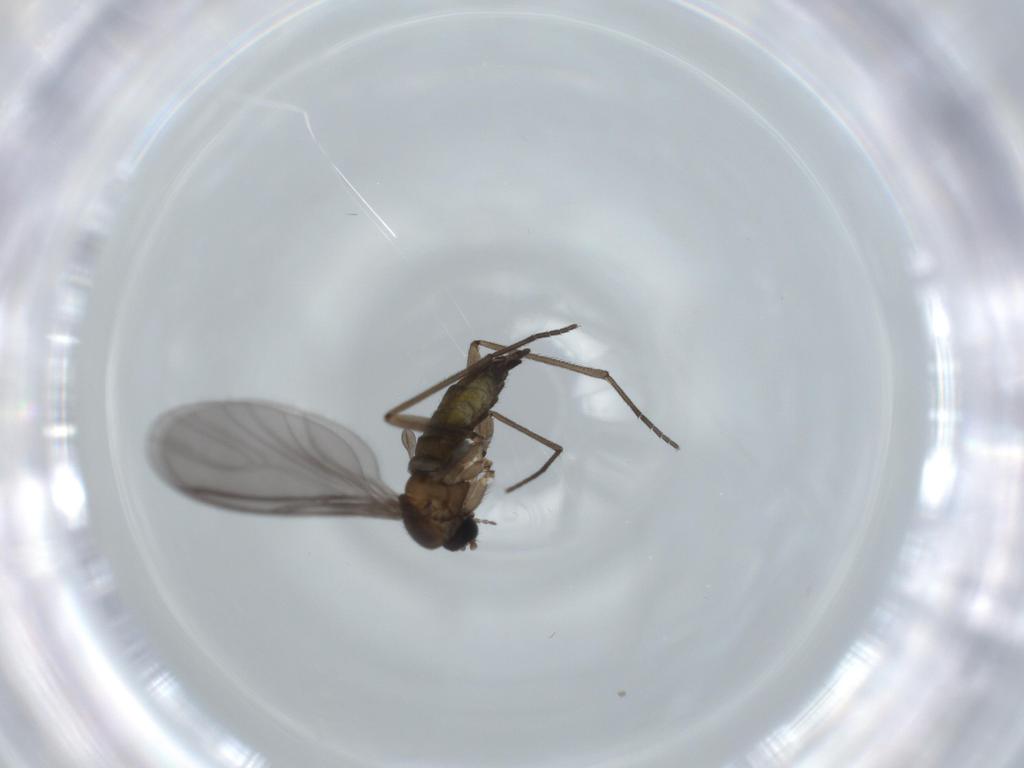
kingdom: Animalia
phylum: Arthropoda
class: Insecta
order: Diptera
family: Sciaridae
